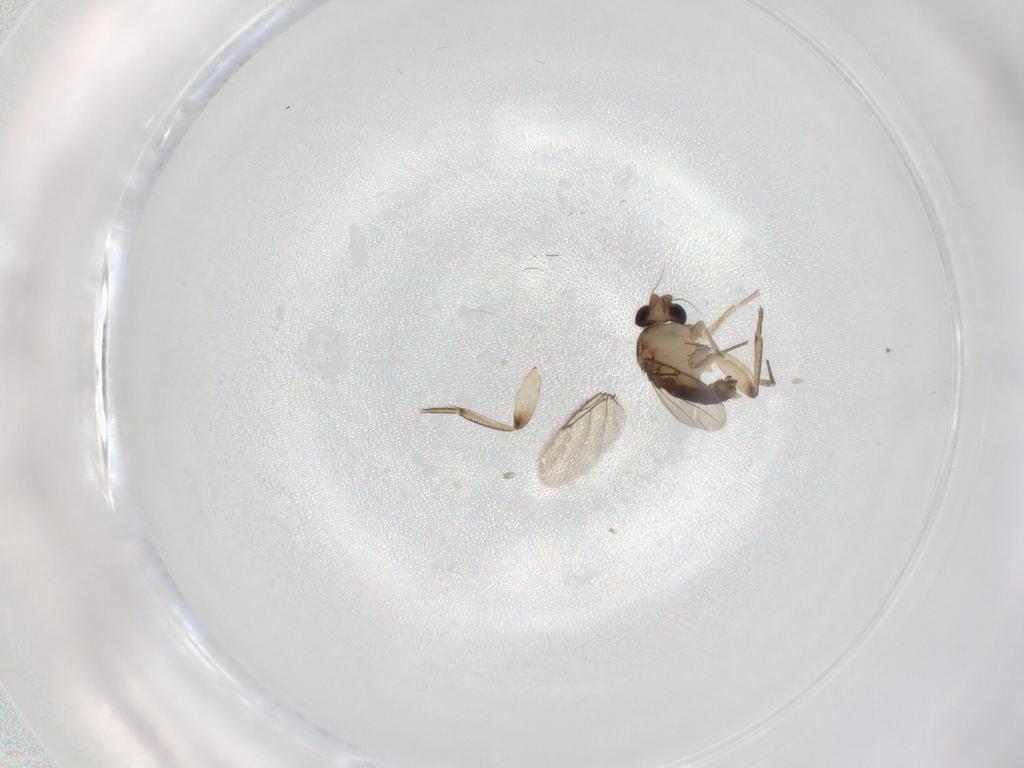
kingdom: Animalia
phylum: Arthropoda
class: Insecta
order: Diptera
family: Phoridae
